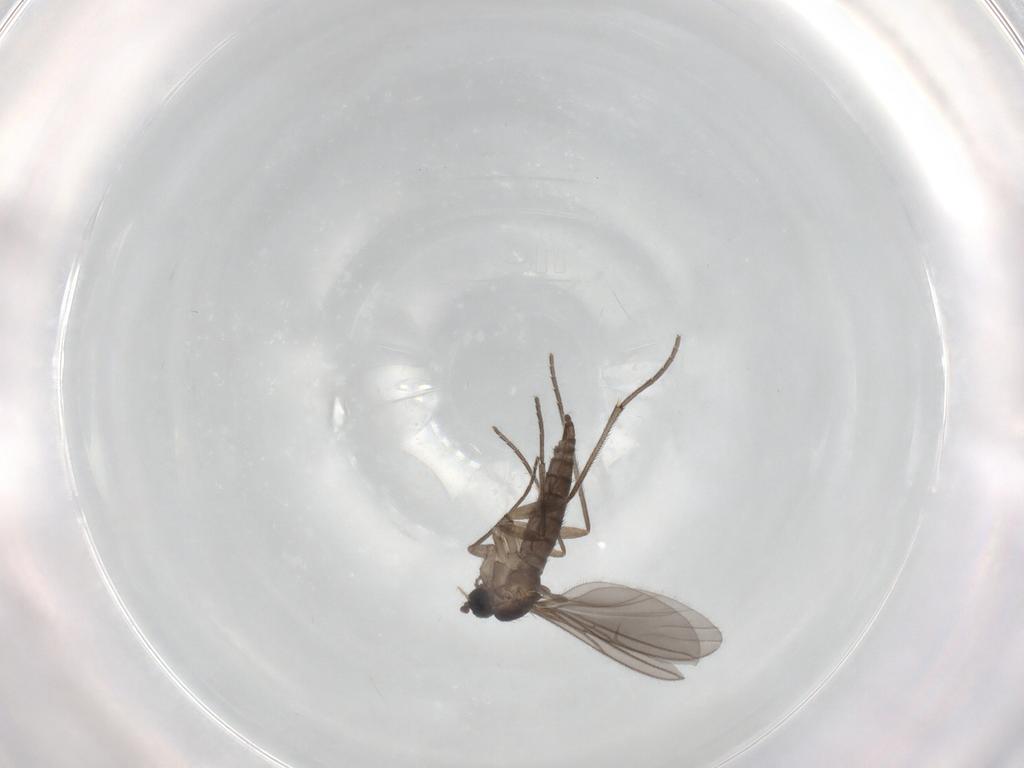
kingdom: Animalia
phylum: Arthropoda
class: Insecta
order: Diptera
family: Sciaridae
